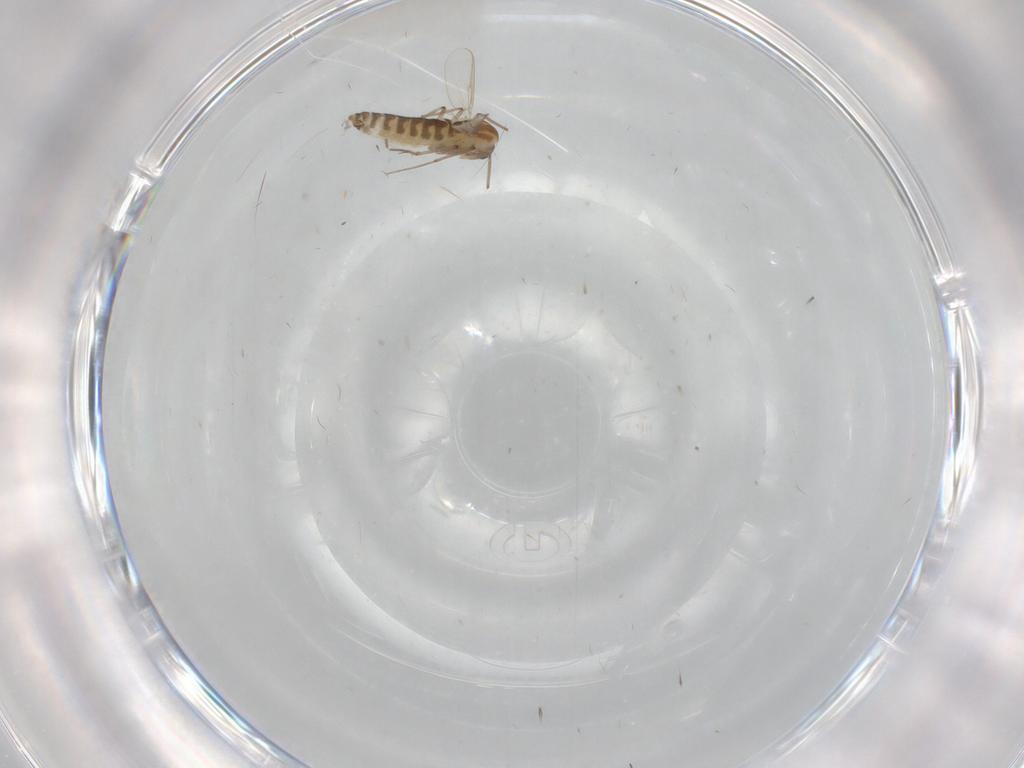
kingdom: Animalia
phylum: Arthropoda
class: Insecta
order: Diptera
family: Chironomidae
